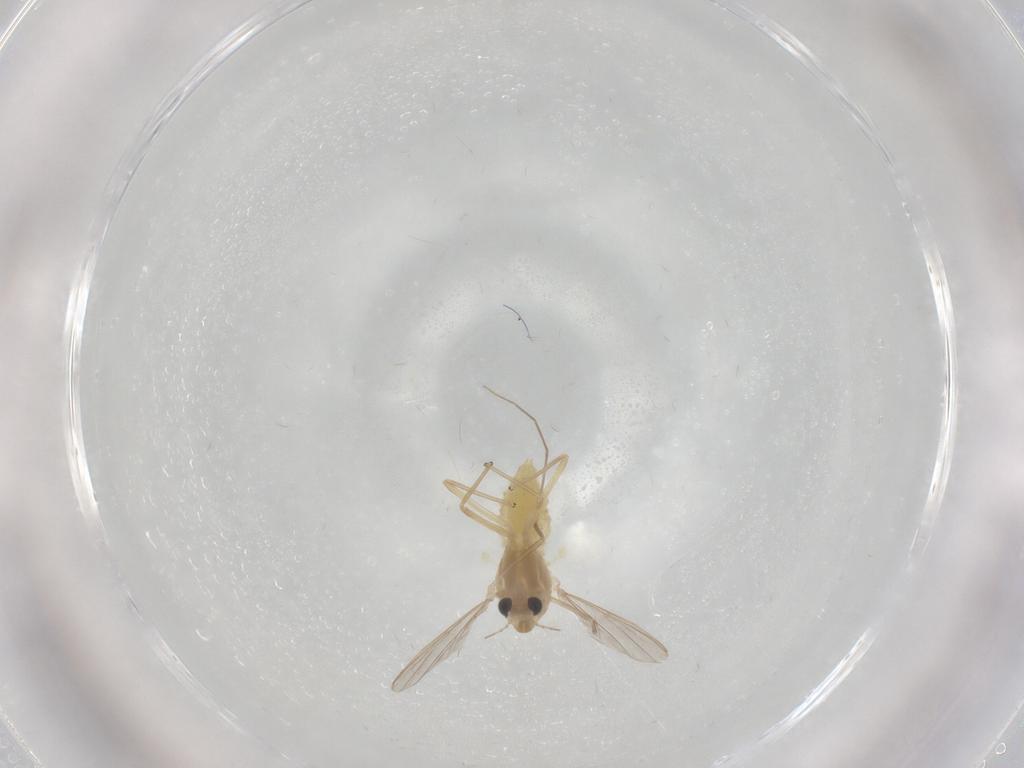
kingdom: Animalia
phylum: Arthropoda
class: Insecta
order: Diptera
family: Chironomidae
